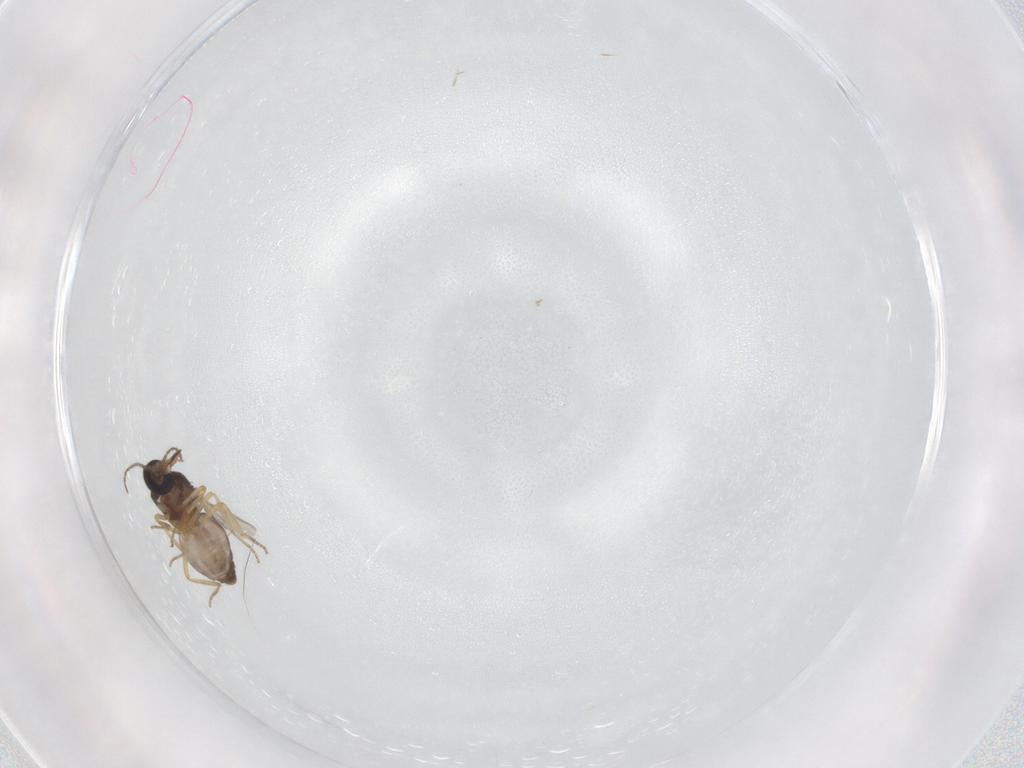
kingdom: Animalia
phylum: Arthropoda
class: Insecta
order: Diptera
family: Ceratopogonidae
